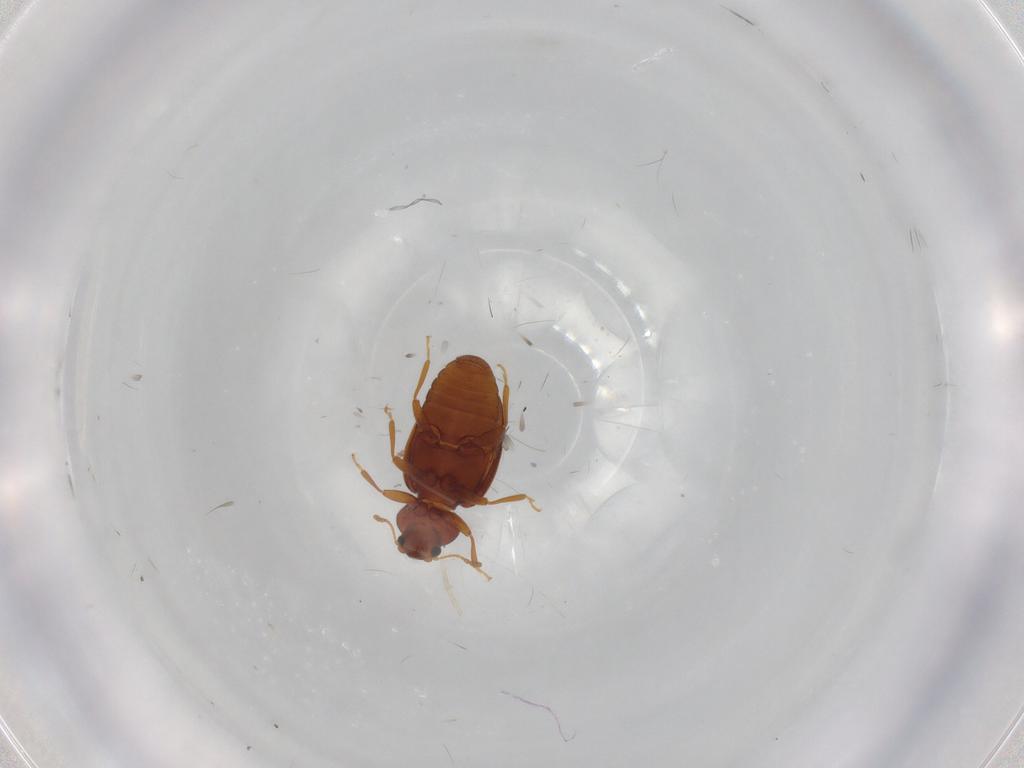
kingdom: Animalia
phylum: Arthropoda
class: Insecta
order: Coleoptera
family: Latridiidae
